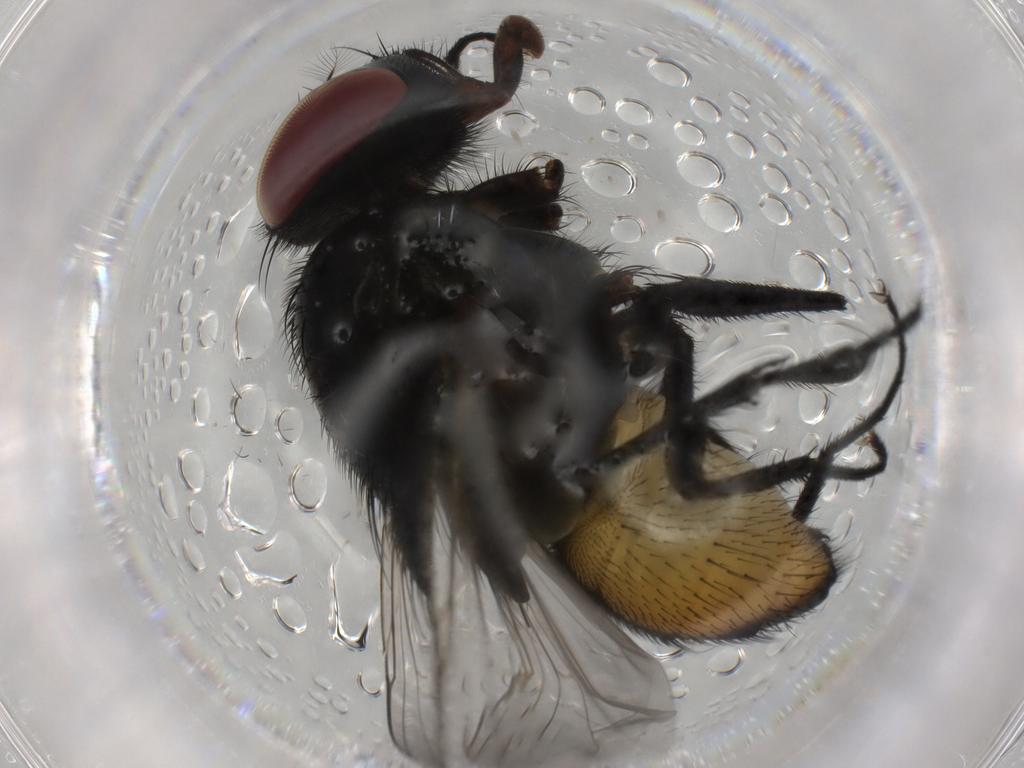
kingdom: Animalia
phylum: Arthropoda
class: Insecta
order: Diptera
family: Muscidae
